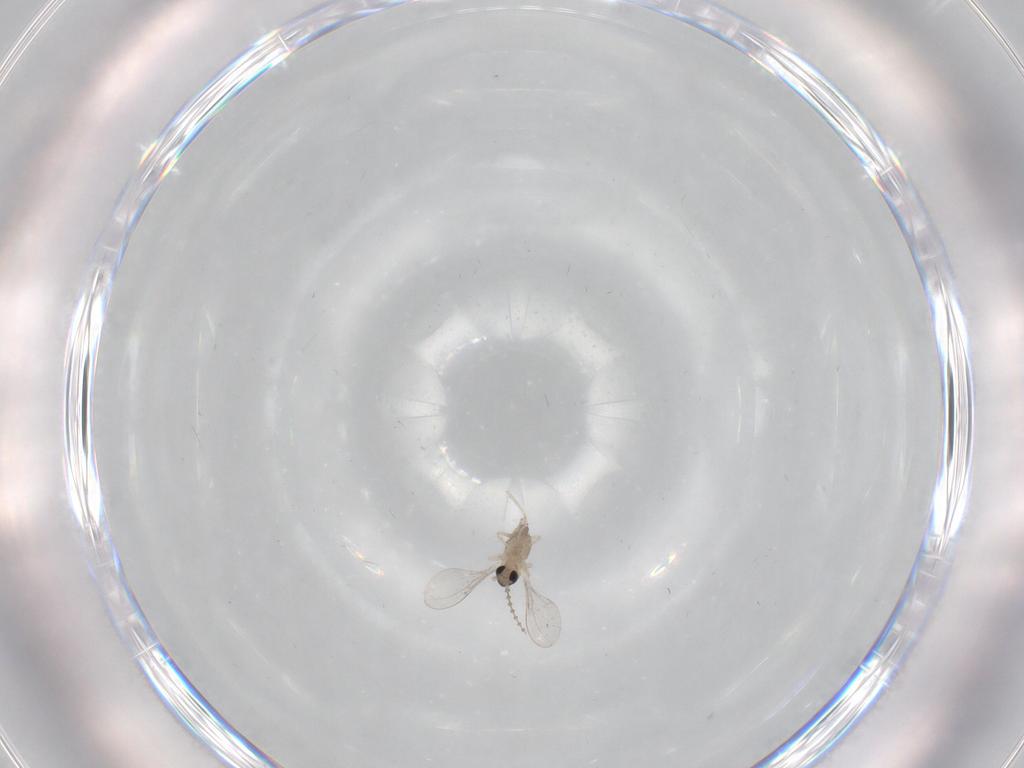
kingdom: Animalia
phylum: Arthropoda
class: Insecta
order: Diptera
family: Cecidomyiidae
